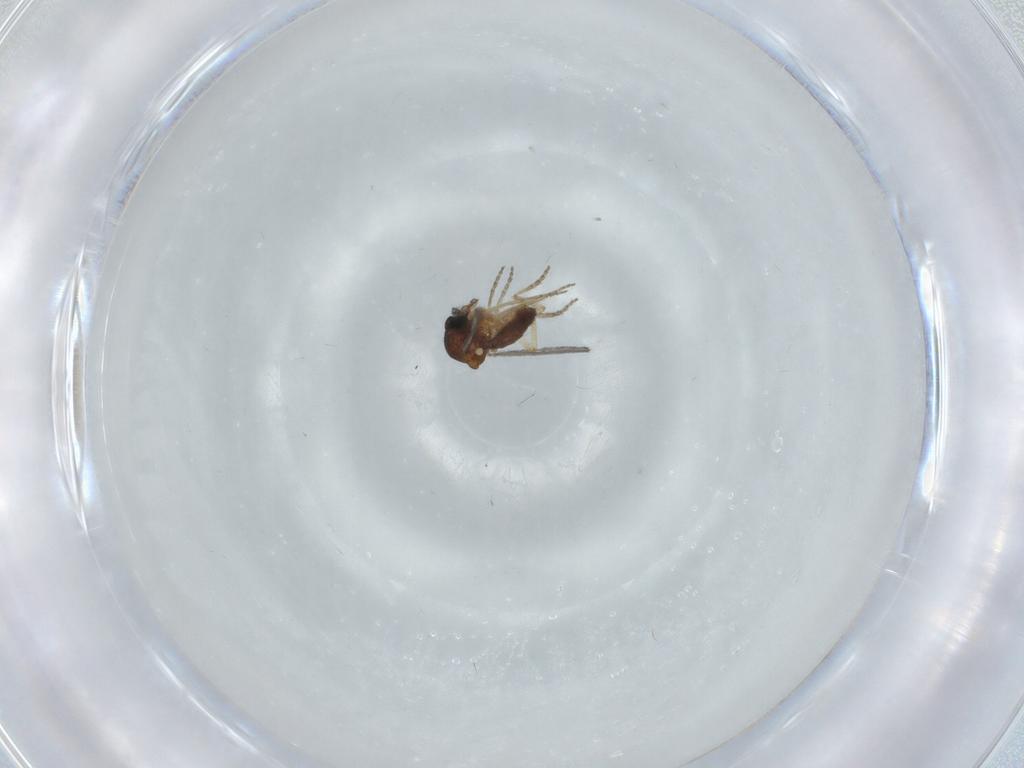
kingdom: Animalia
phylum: Arthropoda
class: Insecta
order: Diptera
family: Ceratopogonidae
